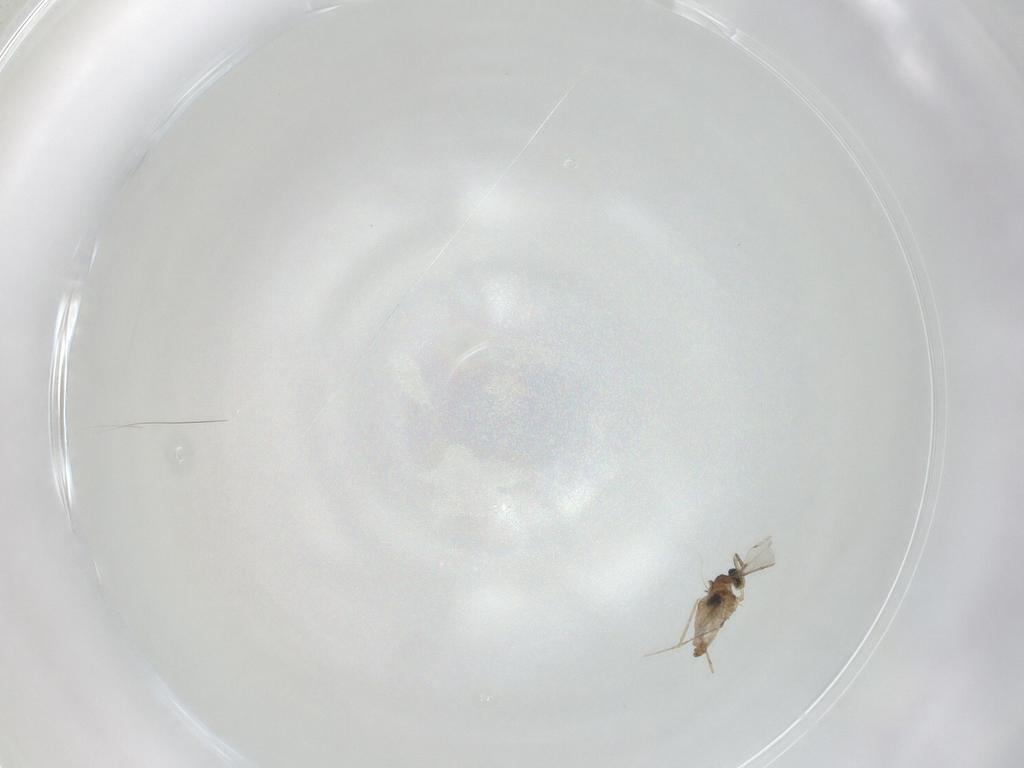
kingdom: Animalia
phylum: Arthropoda
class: Insecta
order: Diptera
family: Cecidomyiidae
